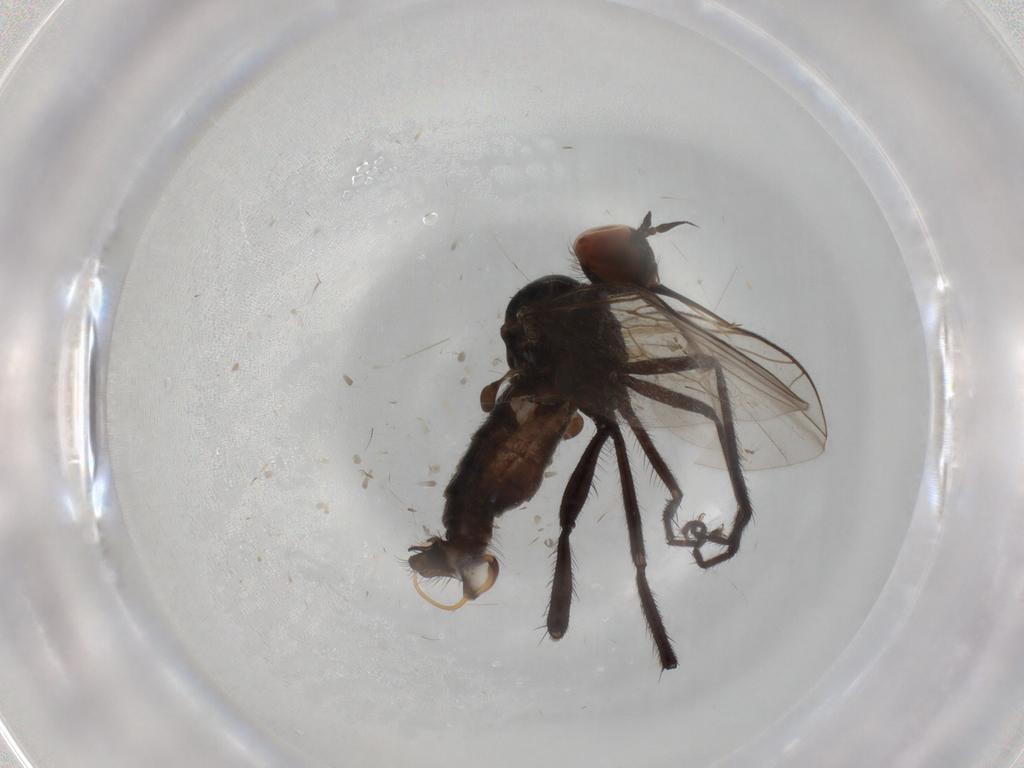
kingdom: Animalia
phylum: Arthropoda
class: Insecta
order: Diptera
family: Empididae
